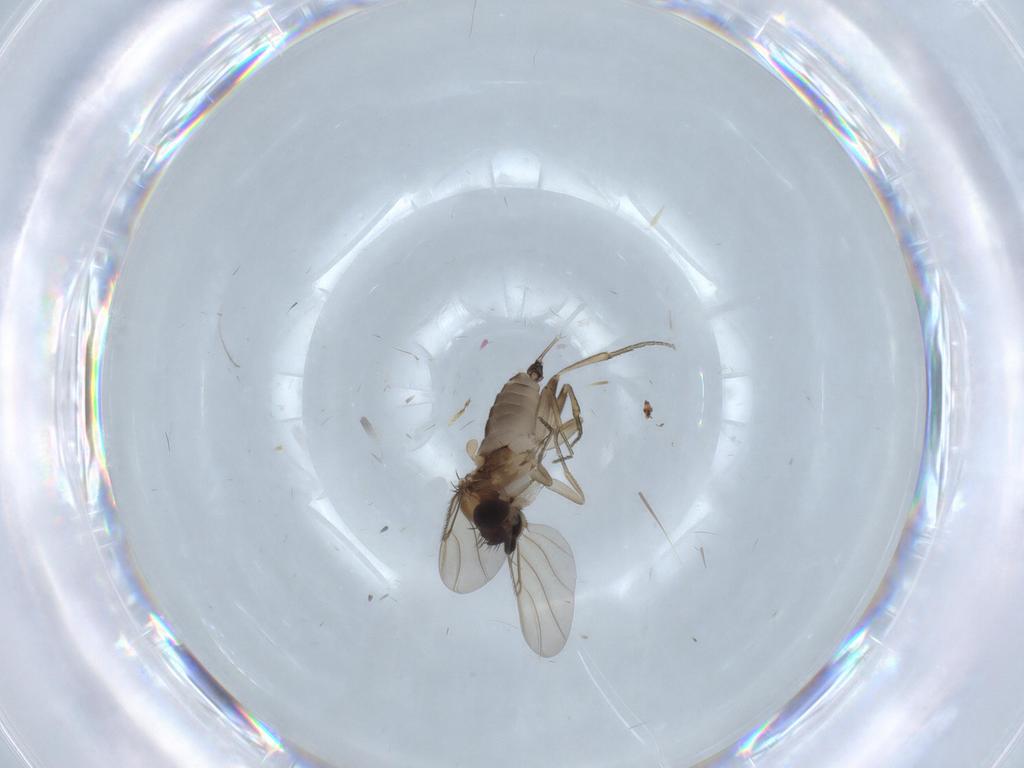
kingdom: Animalia
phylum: Arthropoda
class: Insecta
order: Diptera
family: Phoridae
